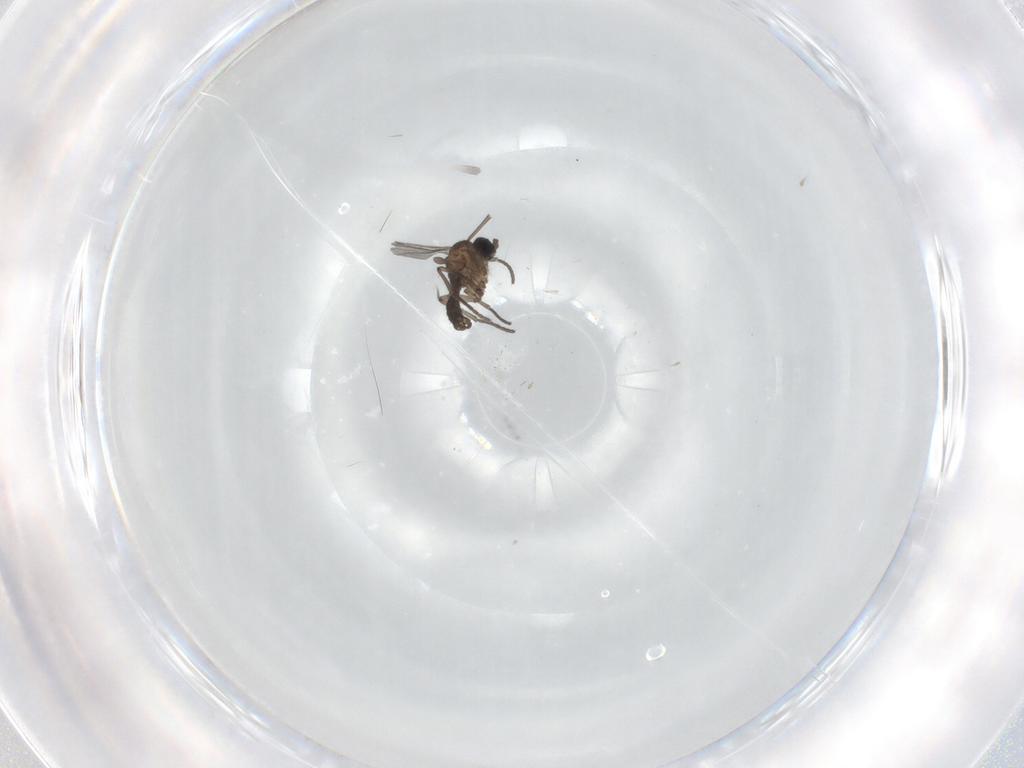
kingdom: Animalia
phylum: Arthropoda
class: Insecta
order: Diptera
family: Sciaridae
